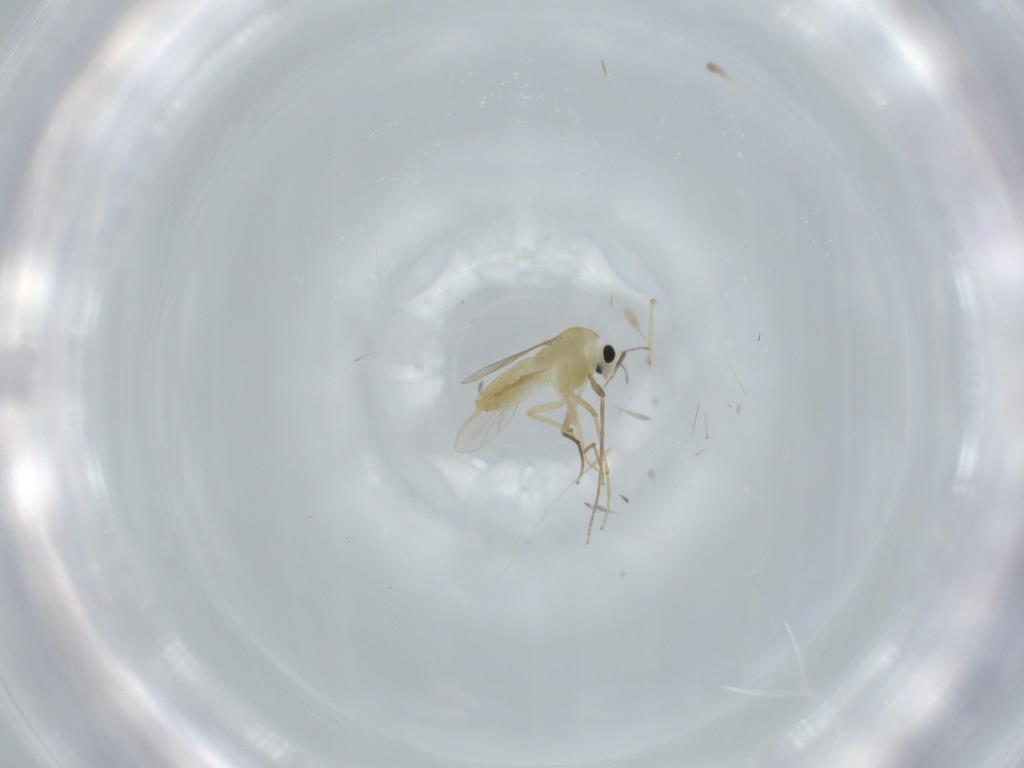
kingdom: Animalia
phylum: Arthropoda
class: Insecta
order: Diptera
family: Chironomidae
